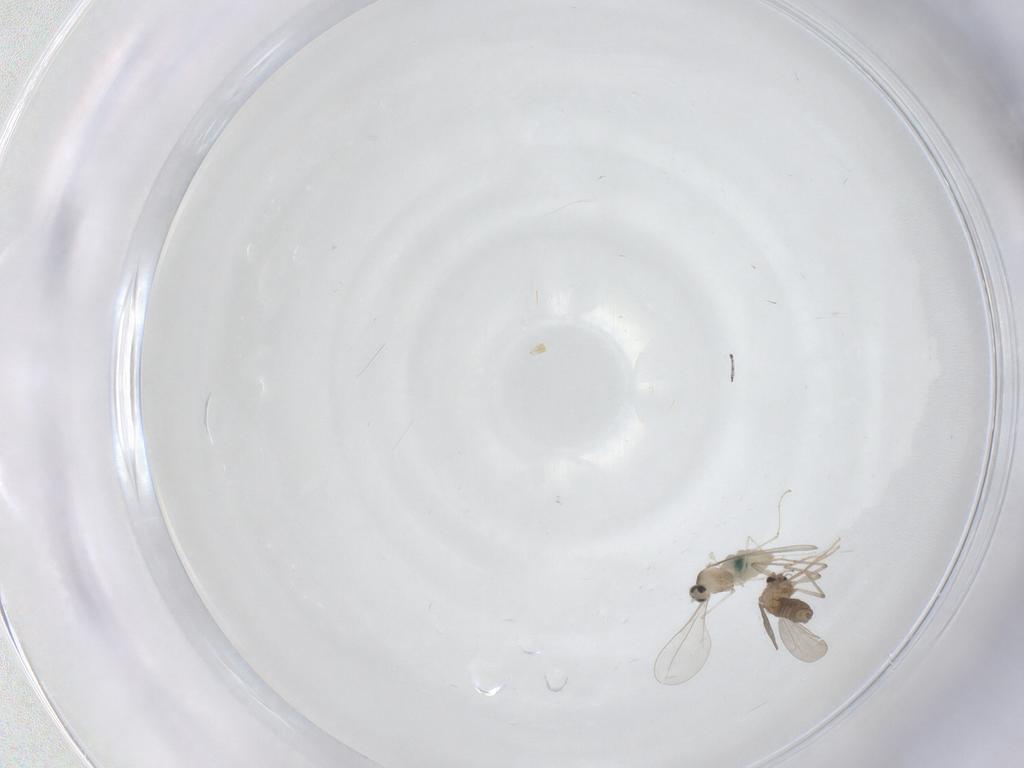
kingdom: Animalia
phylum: Arthropoda
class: Insecta
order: Diptera
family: Cecidomyiidae
